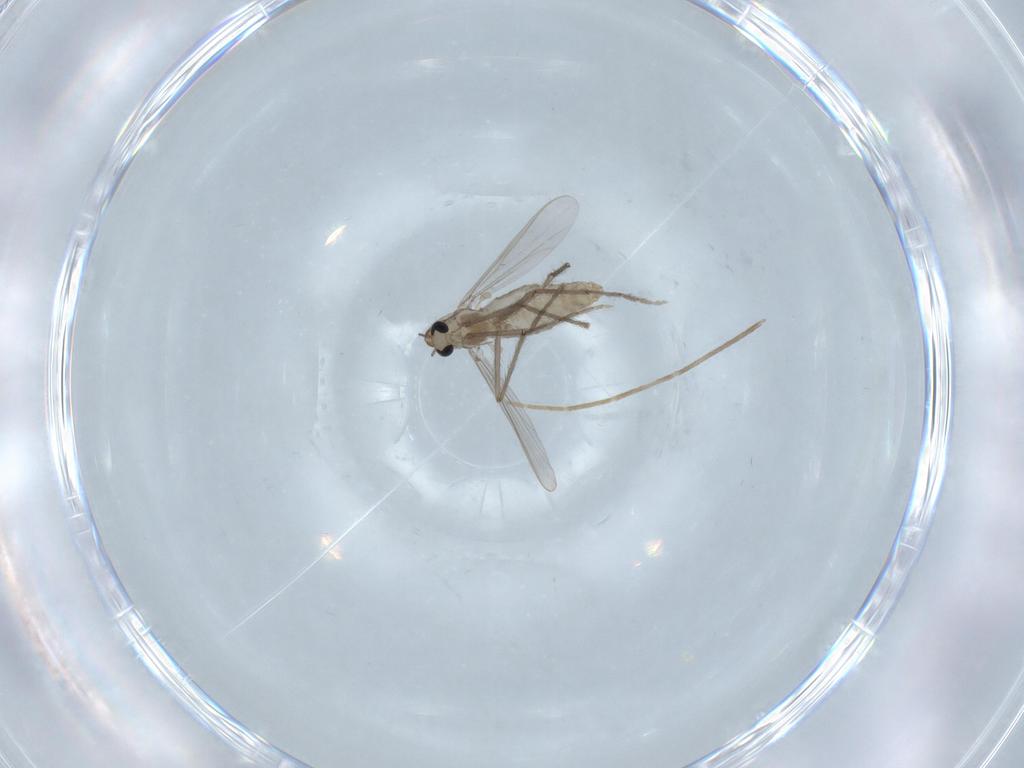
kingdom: Animalia
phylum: Arthropoda
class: Insecta
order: Diptera
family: Chironomidae
